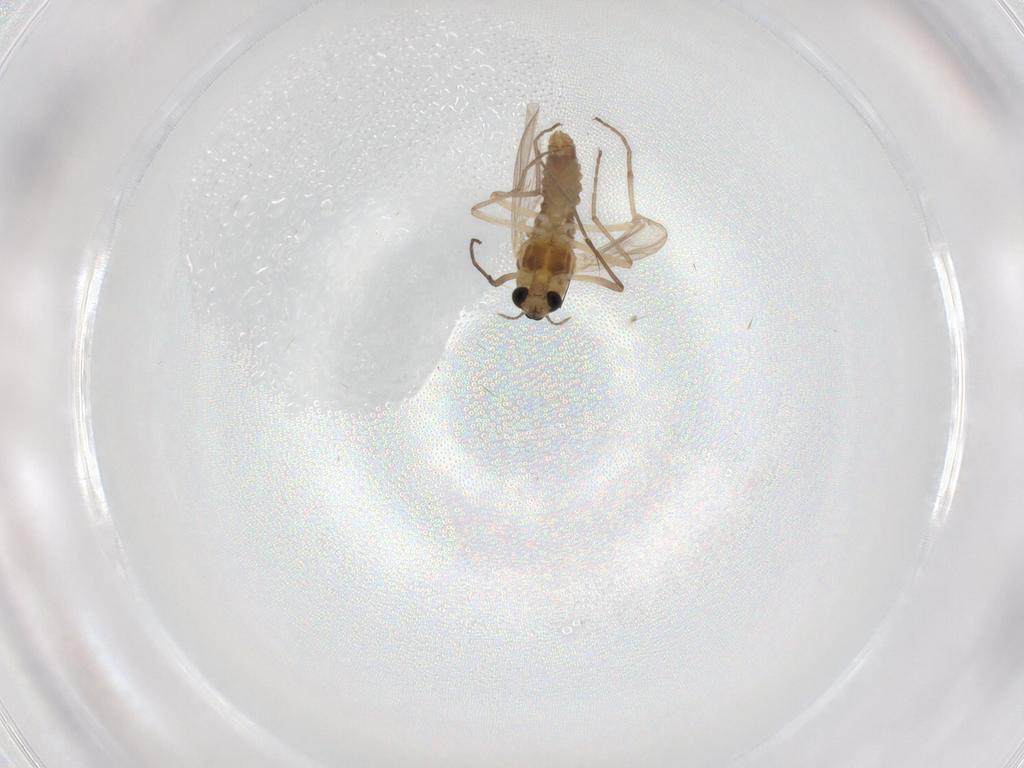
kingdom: Animalia
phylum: Arthropoda
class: Insecta
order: Diptera
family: Chironomidae
